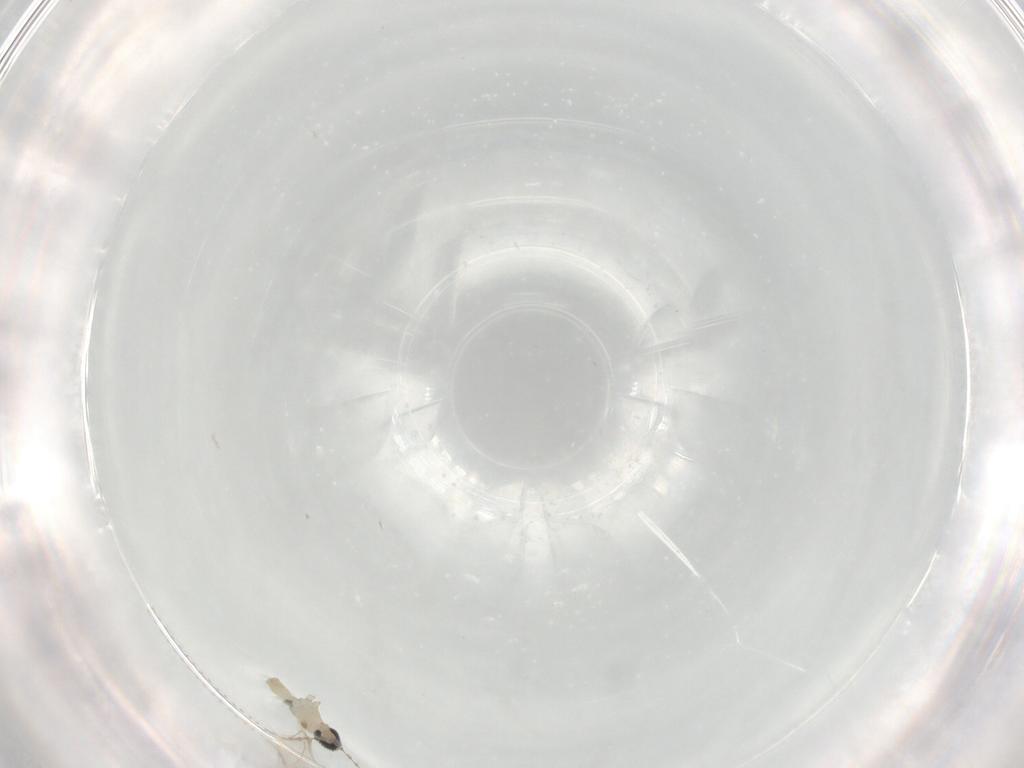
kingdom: Animalia
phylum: Arthropoda
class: Insecta
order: Diptera
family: Cecidomyiidae
